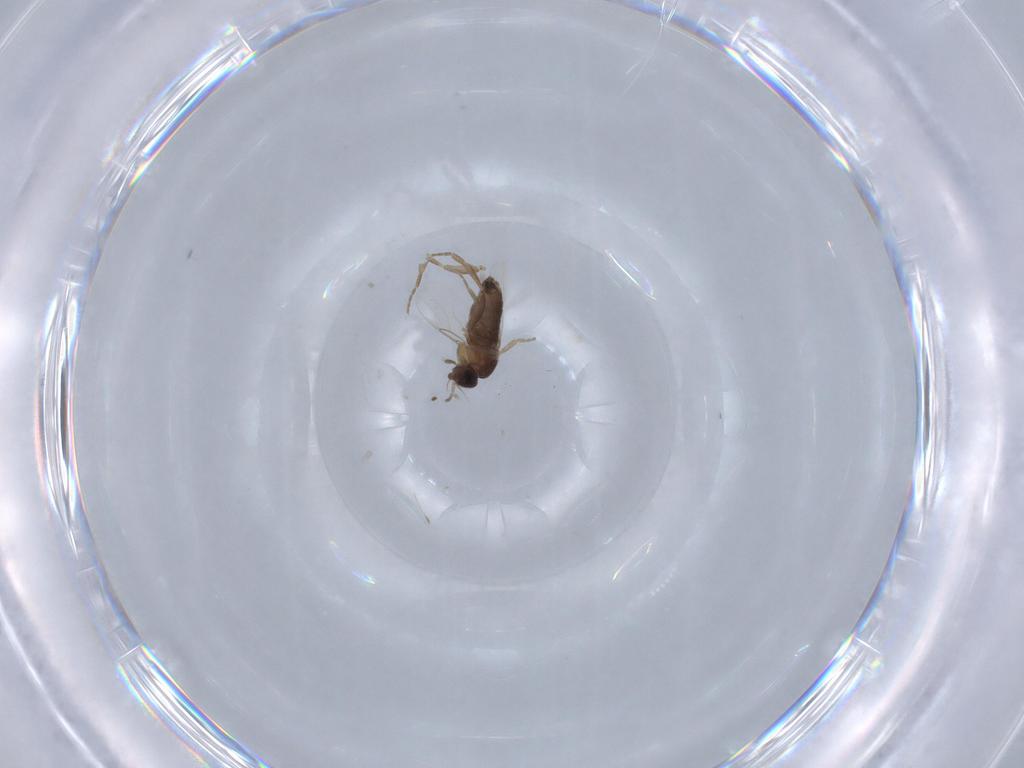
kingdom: Animalia
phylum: Arthropoda
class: Insecta
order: Diptera
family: Phoridae
